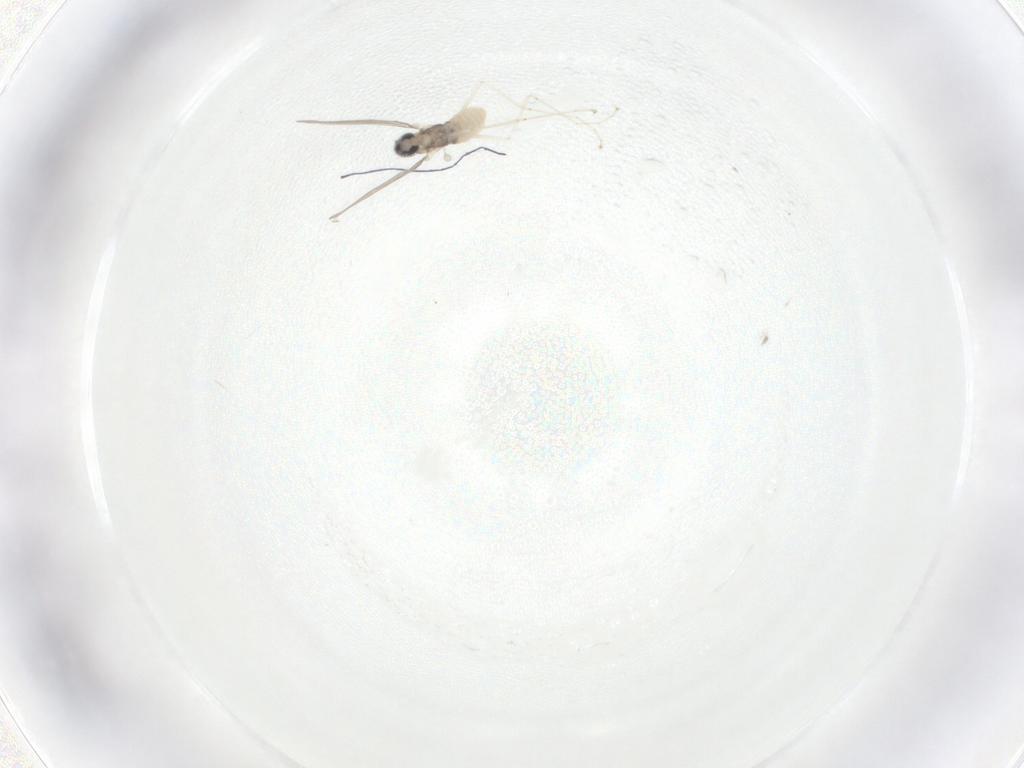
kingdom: Animalia
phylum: Arthropoda
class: Insecta
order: Diptera
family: Cecidomyiidae
